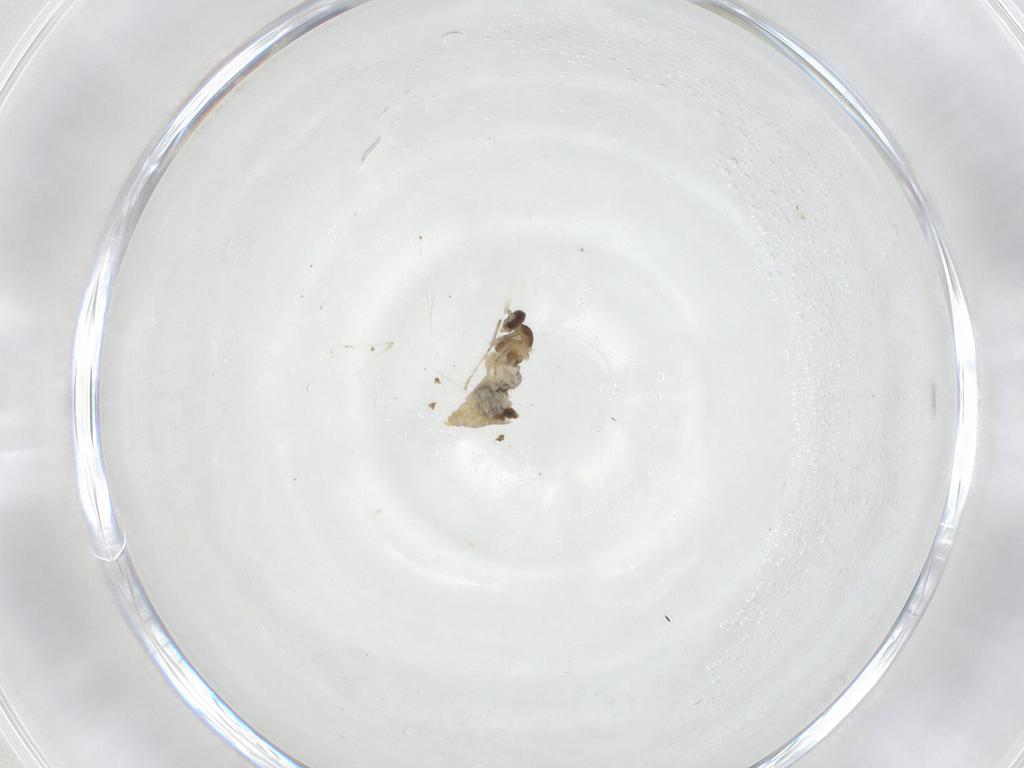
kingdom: Animalia
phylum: Arthropoda
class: Insecta
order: Diptera
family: Cecidomyiidae
